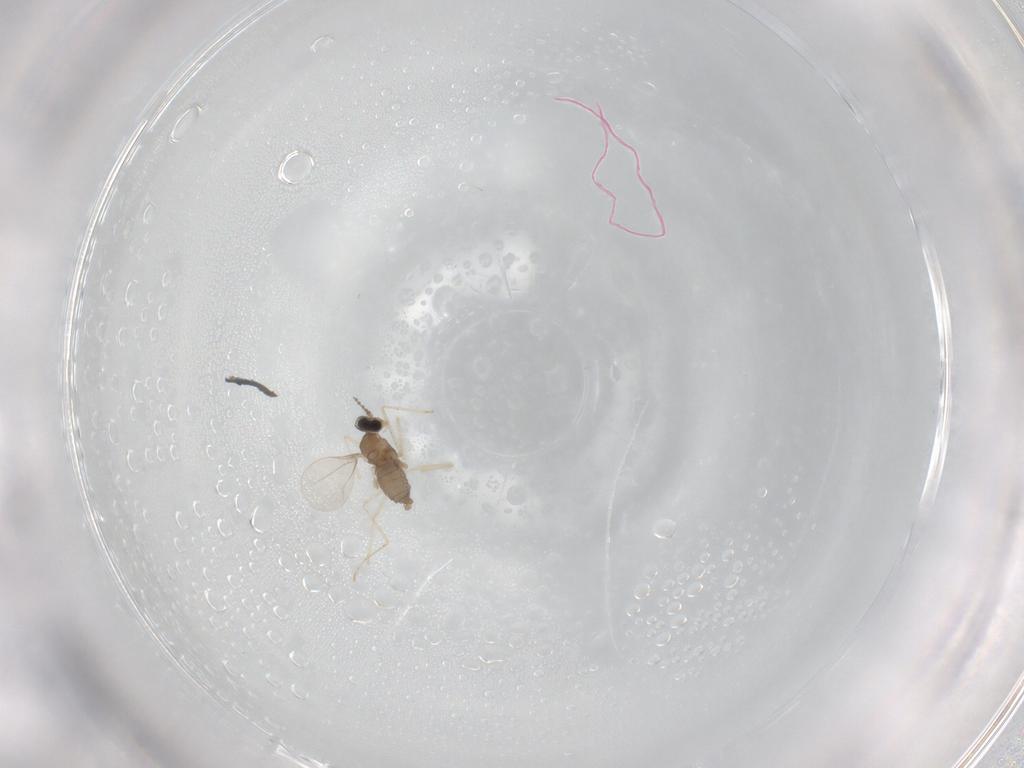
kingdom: Animalia
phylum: Arthropoda
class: Insecta
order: Diptera
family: Cecidomyiidae
